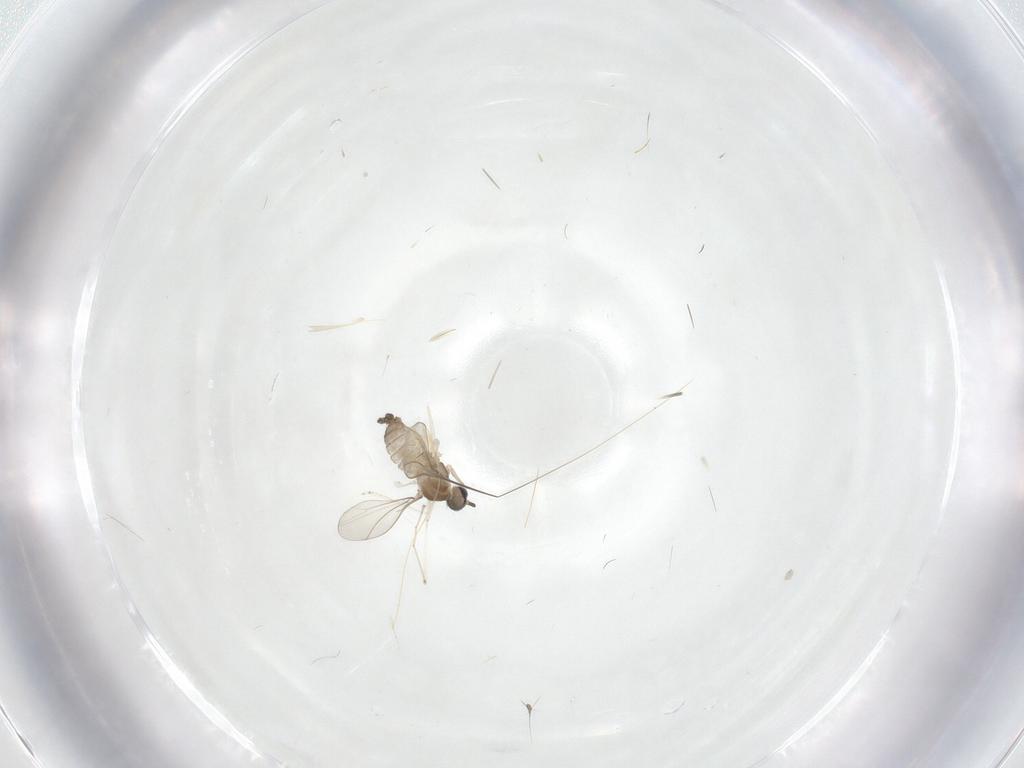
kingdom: Animalia
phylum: Arthropoda
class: Insecta
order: Diptera
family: Cecidomyiidae
